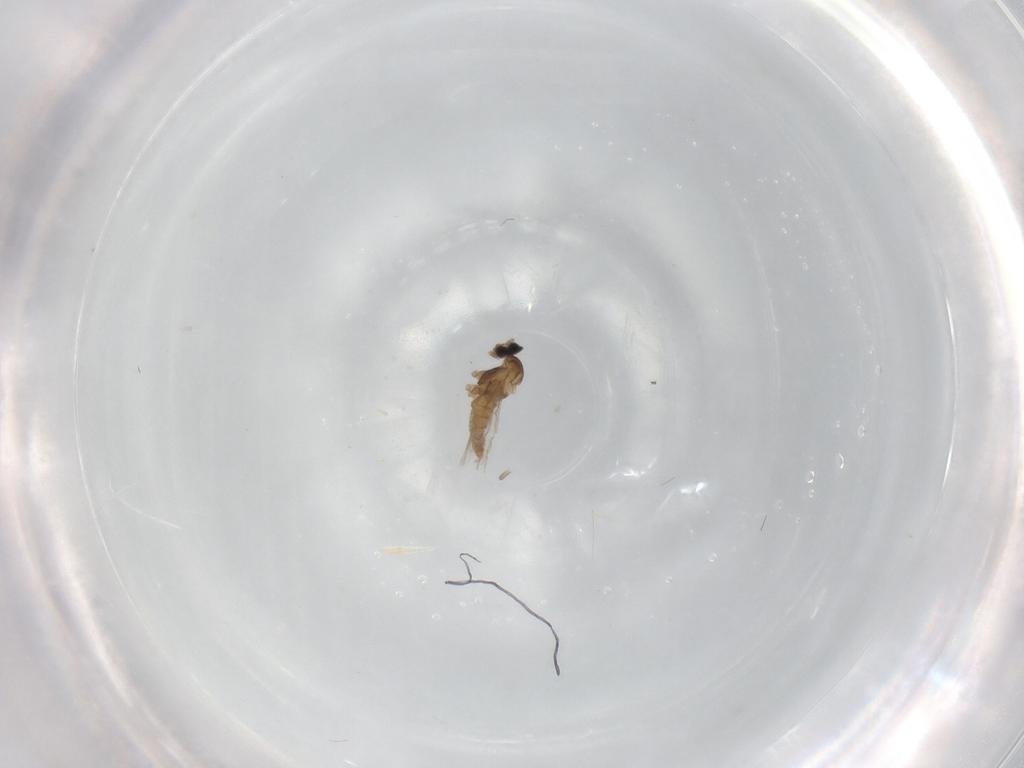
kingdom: Animalia
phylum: Arthropoda
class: Insecta
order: Diptera
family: Cecidomyiidae
